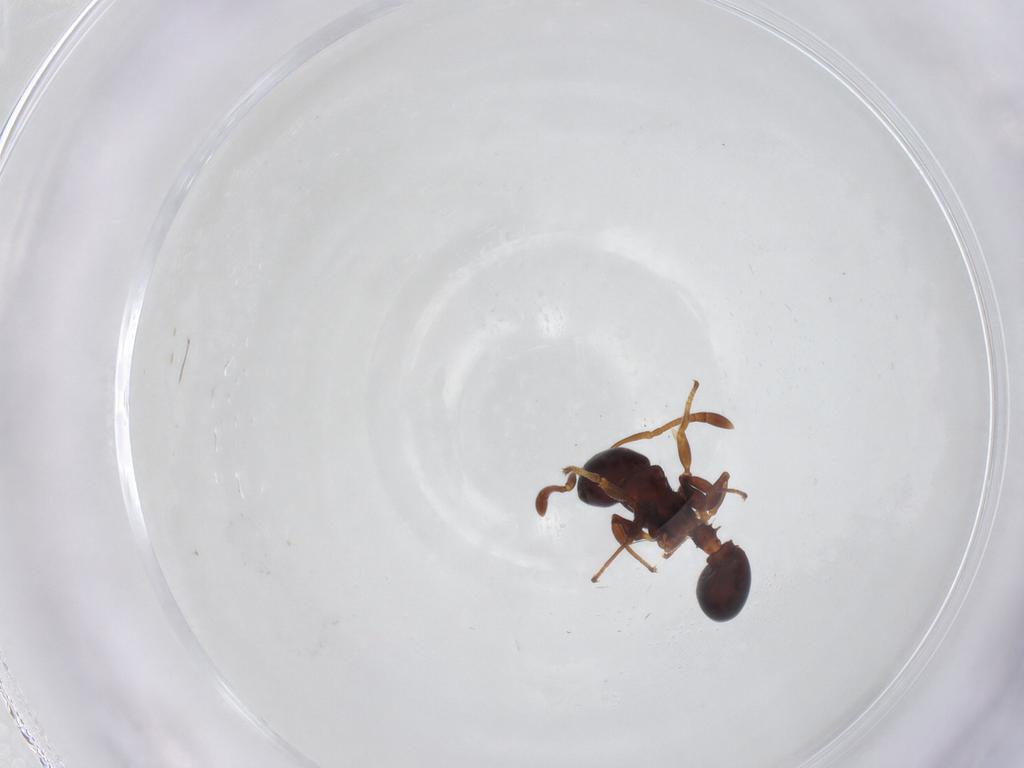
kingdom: Animalia
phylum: Arthropoda
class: Insecta
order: Hymenoptera
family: Formicidae
